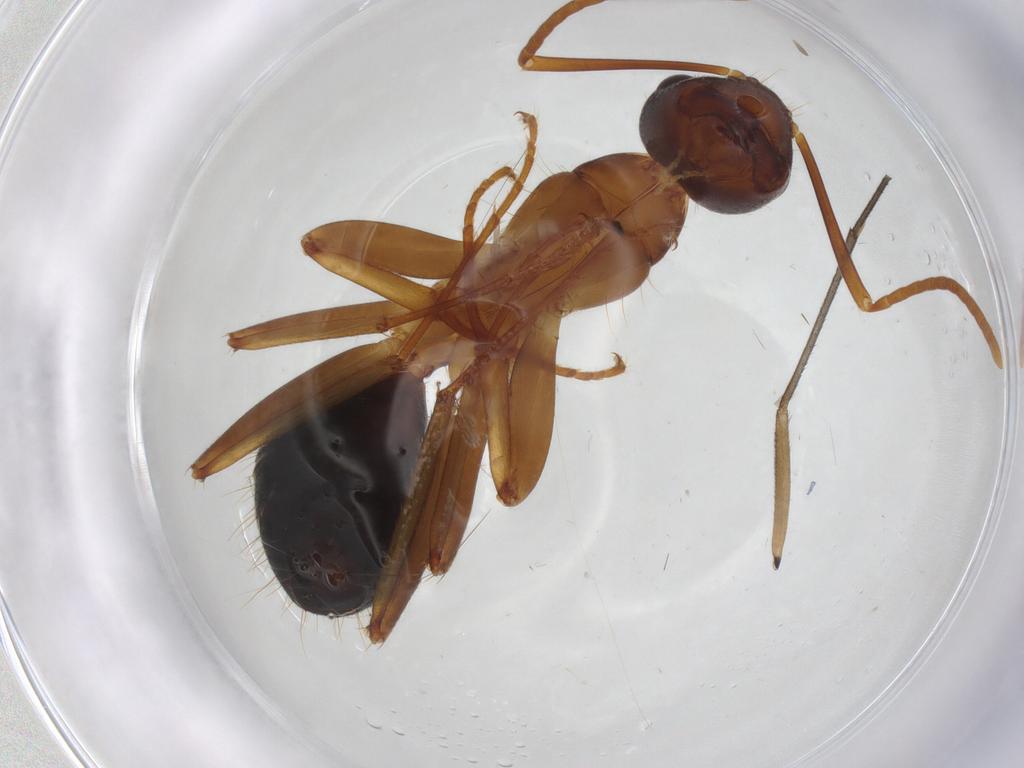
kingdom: Animalia
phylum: Arthropoda
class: Insecta
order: Hymenoptera
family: Formicidae
